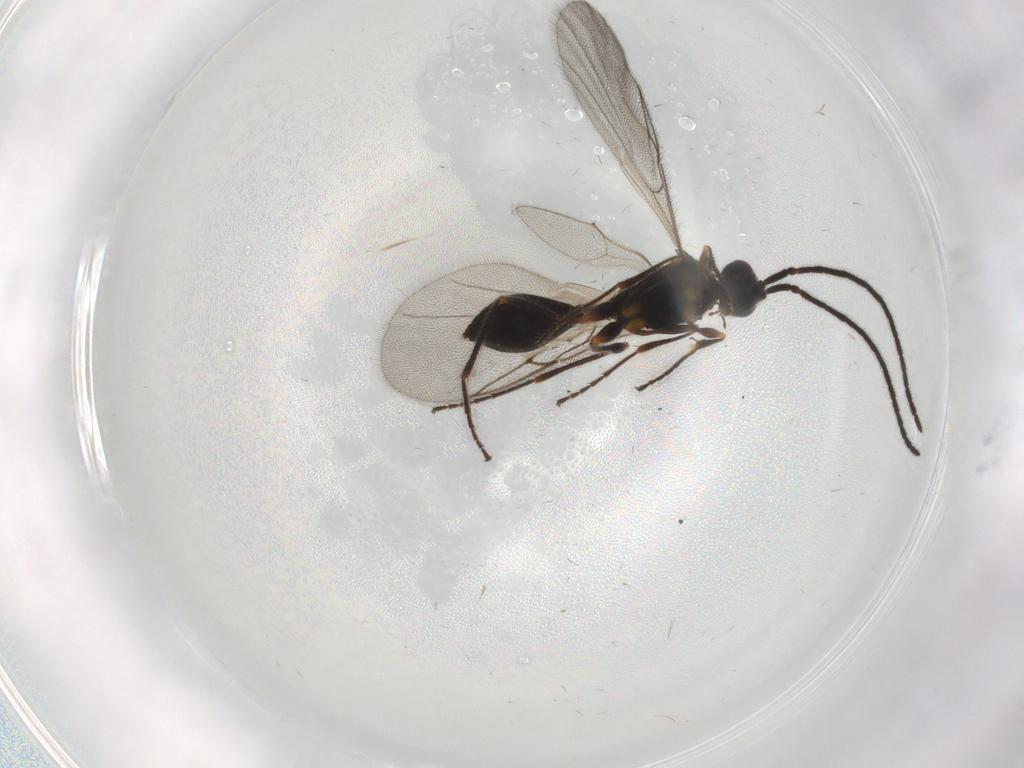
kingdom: Animalia
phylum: Arthropoda
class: Insecta
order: Hymenoptera
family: Diapriidae
